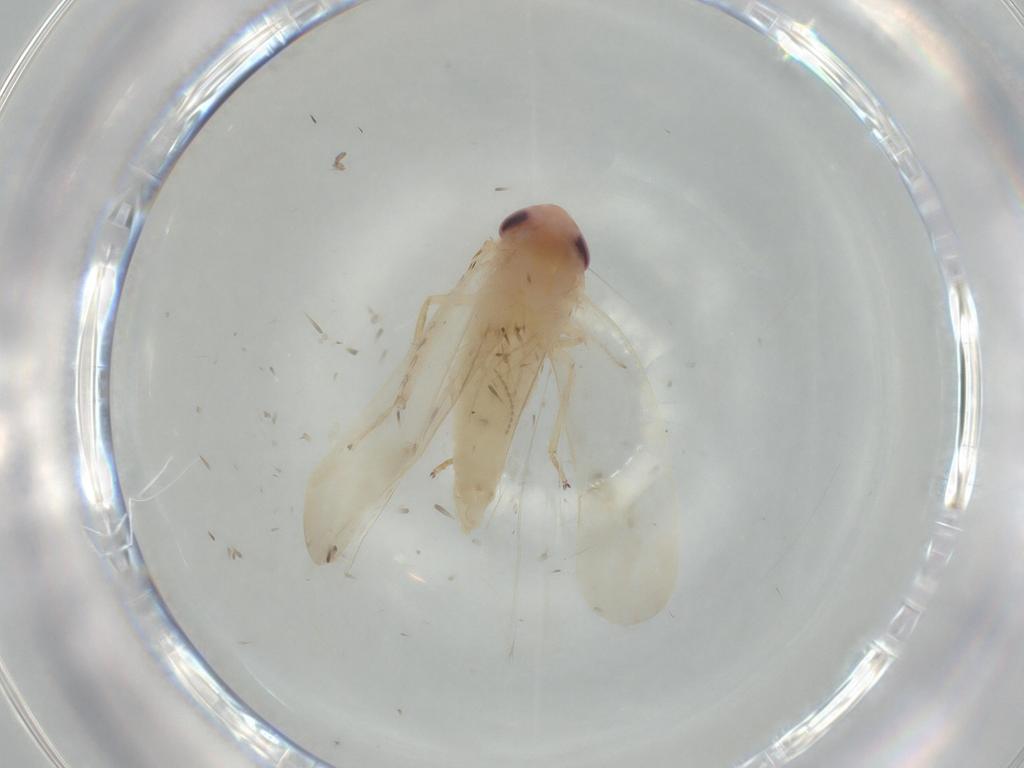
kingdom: Animalia
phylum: Arthropoda
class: Insecta
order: Hemiptera
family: Cicadellidae
